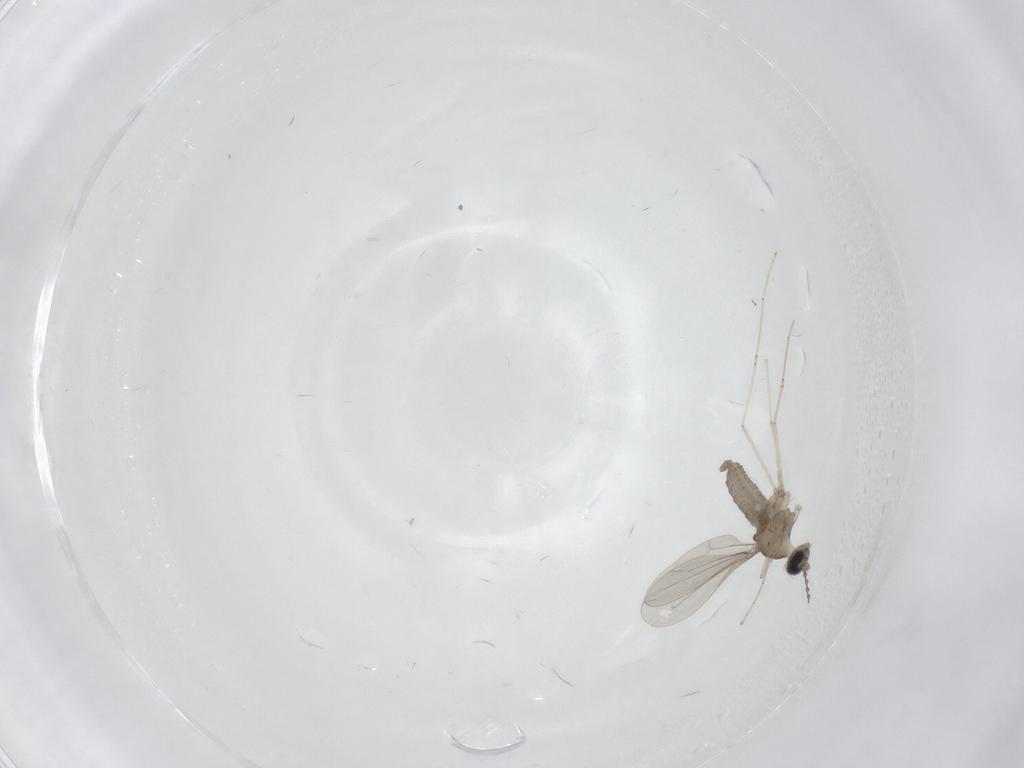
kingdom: Animalia
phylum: Arthropoda
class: Insecta
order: Diptera
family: Cecidomyiidae
